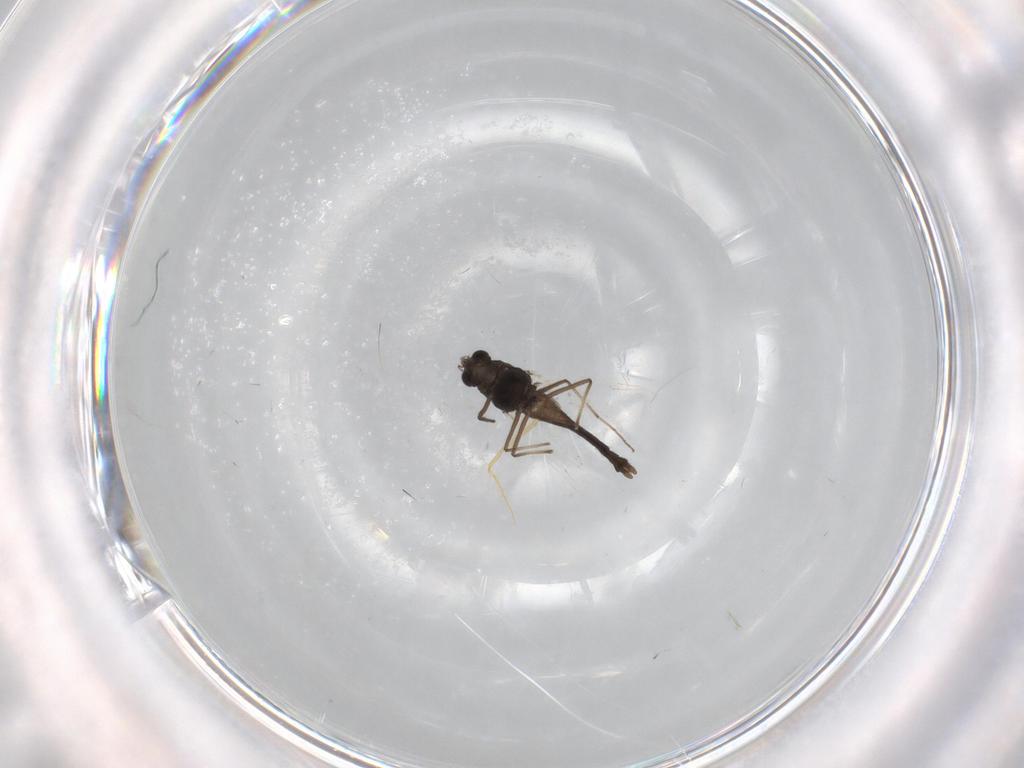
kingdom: Animalia
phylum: Arthropoda
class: Insecta
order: Diptera
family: Chironomidae
